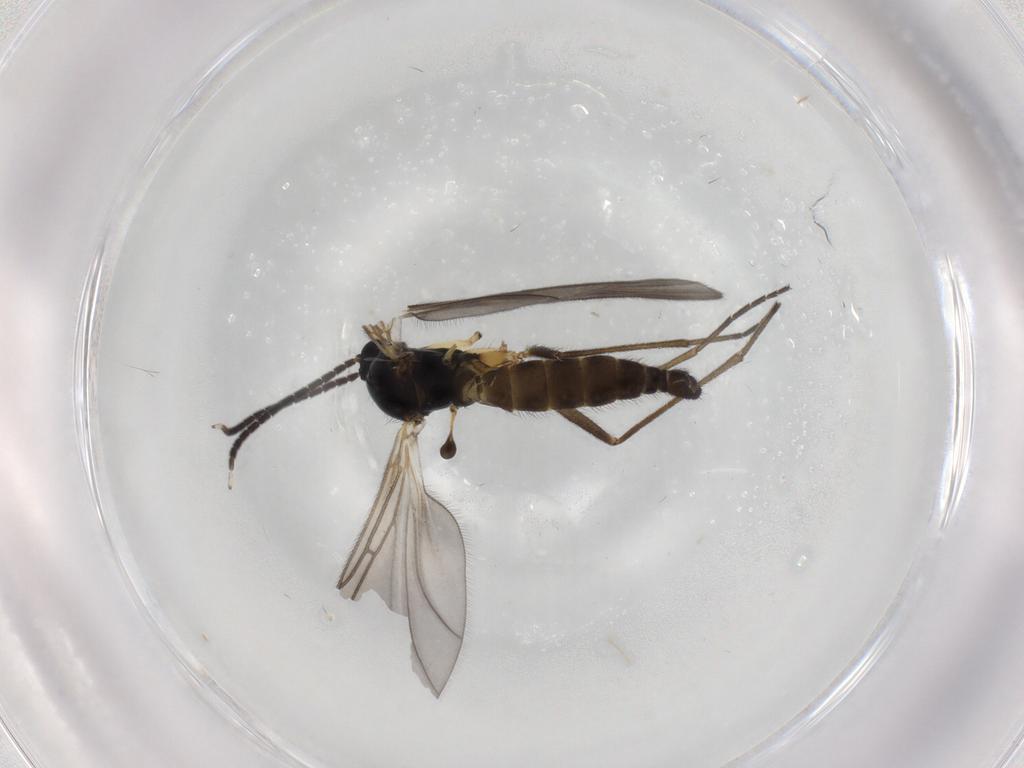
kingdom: Animalia
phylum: Arthropoda
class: Insecta
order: Diptera
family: Sciaridae
